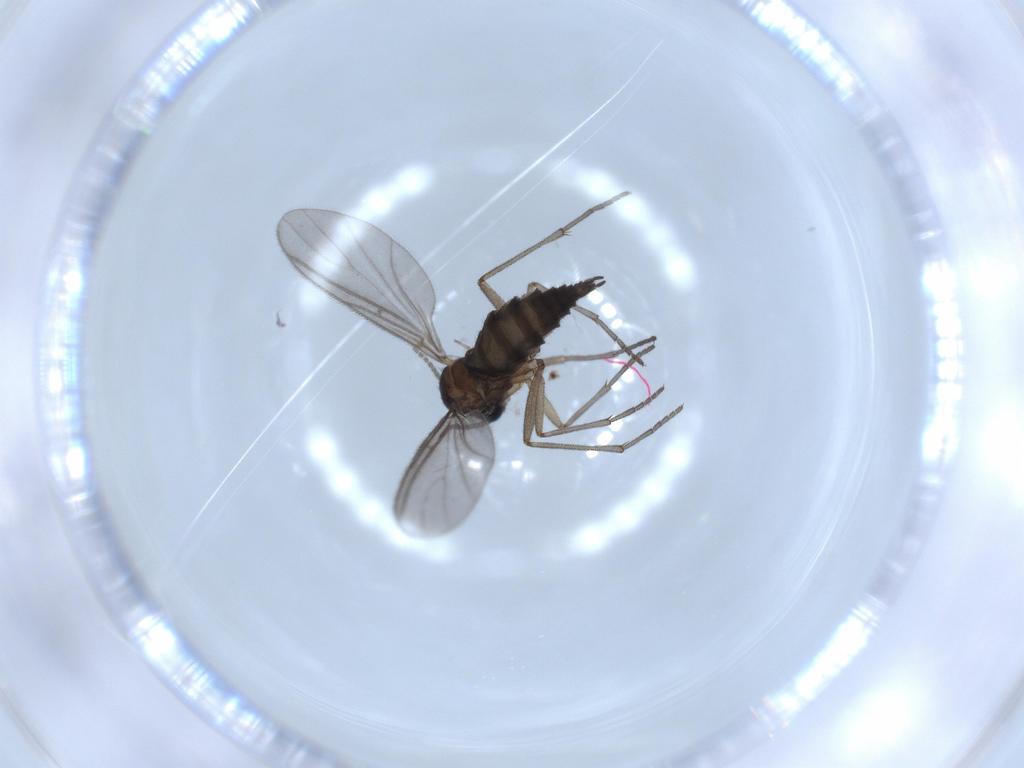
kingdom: Animalia
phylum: Arthropoda
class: Insecta
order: Diptera
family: Sciaridae
